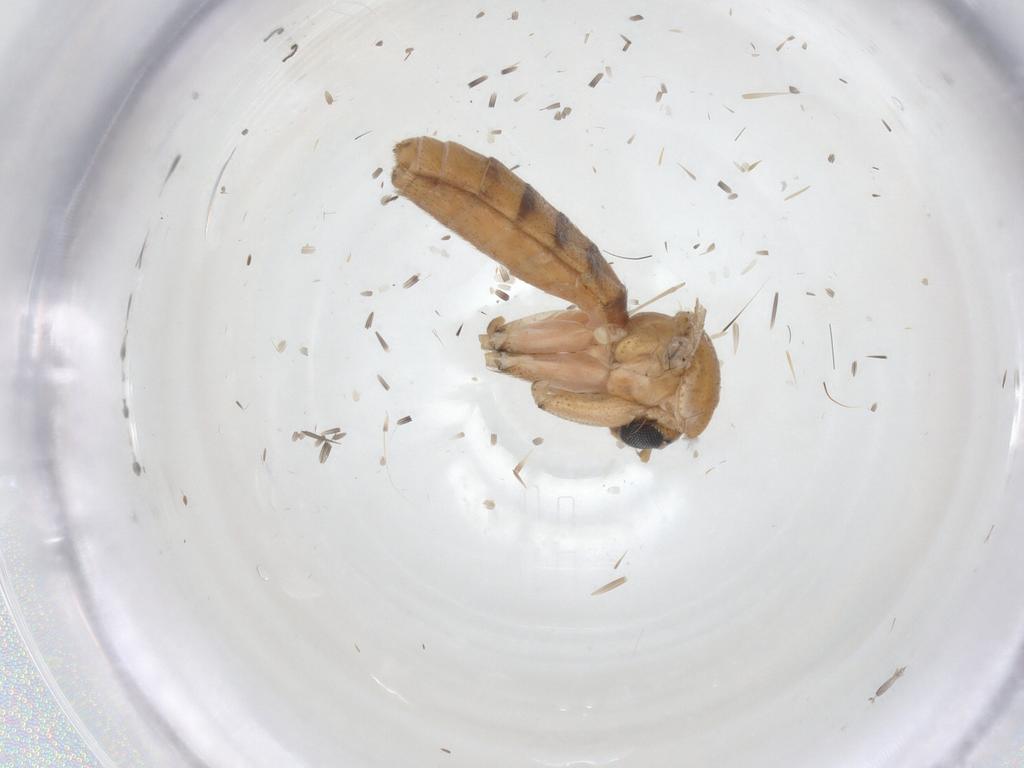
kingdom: Animalia
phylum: Arthropoda
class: Insecta
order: Diptera
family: Mycetophilidae
